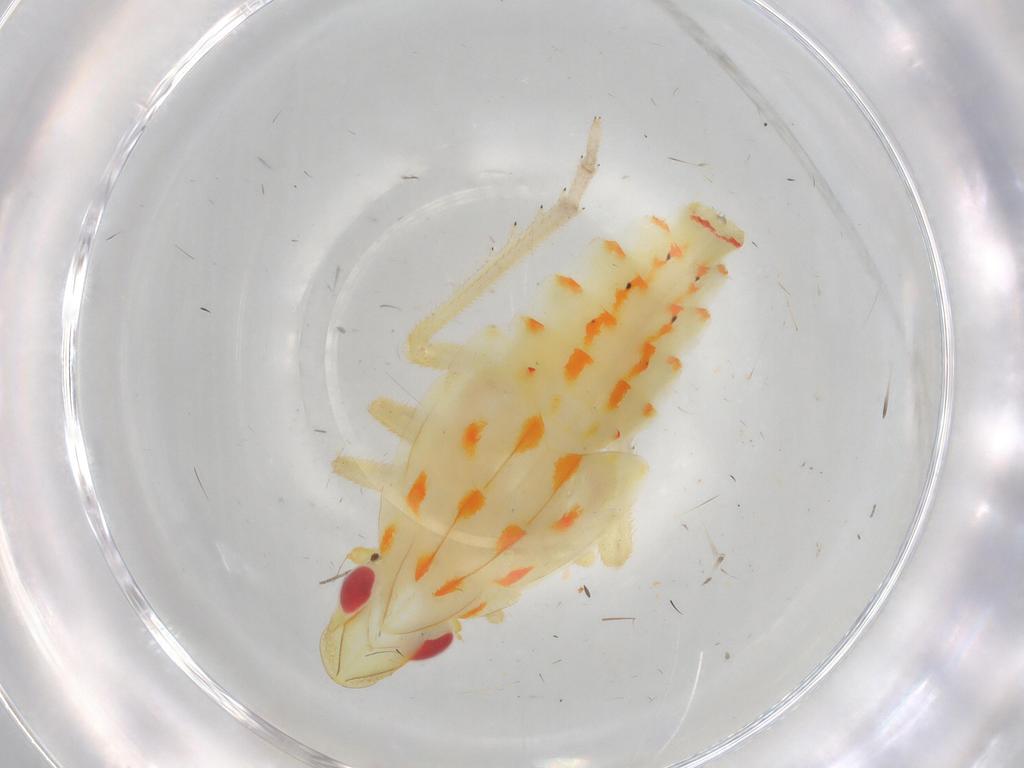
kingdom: Animalia
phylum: Arthropoda
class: Insecta
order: Hemiptera
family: Tropiduchidae
